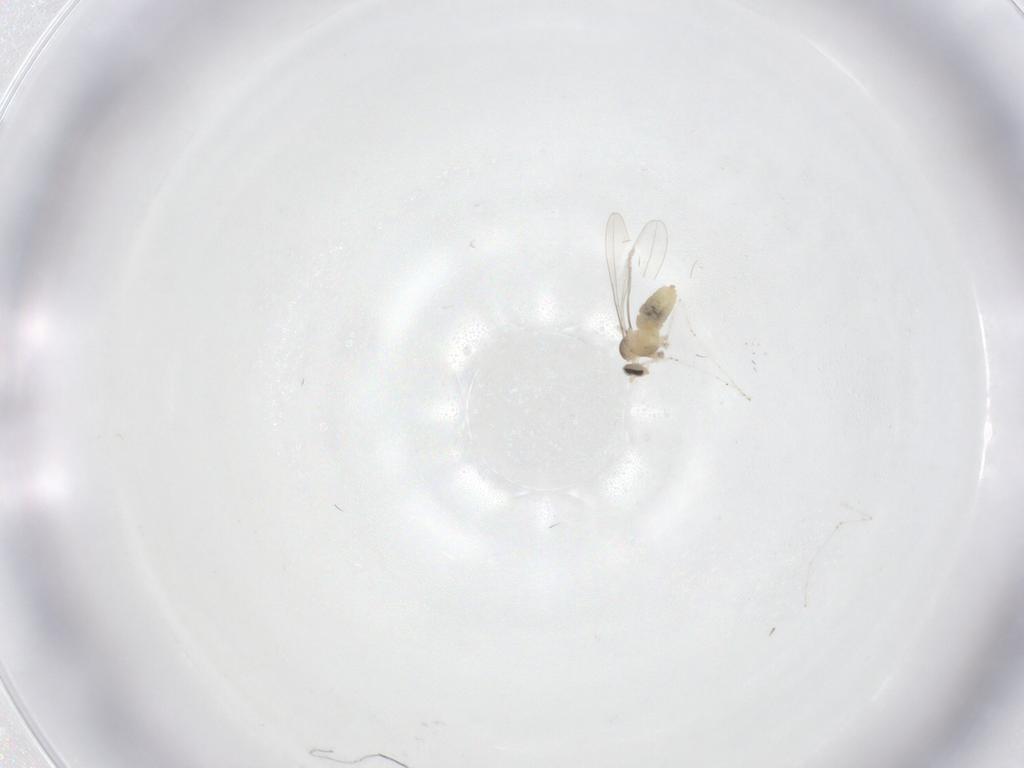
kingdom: Animalia
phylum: Arthropoda
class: Insecta
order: Diptera
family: Cecidomyiidae
